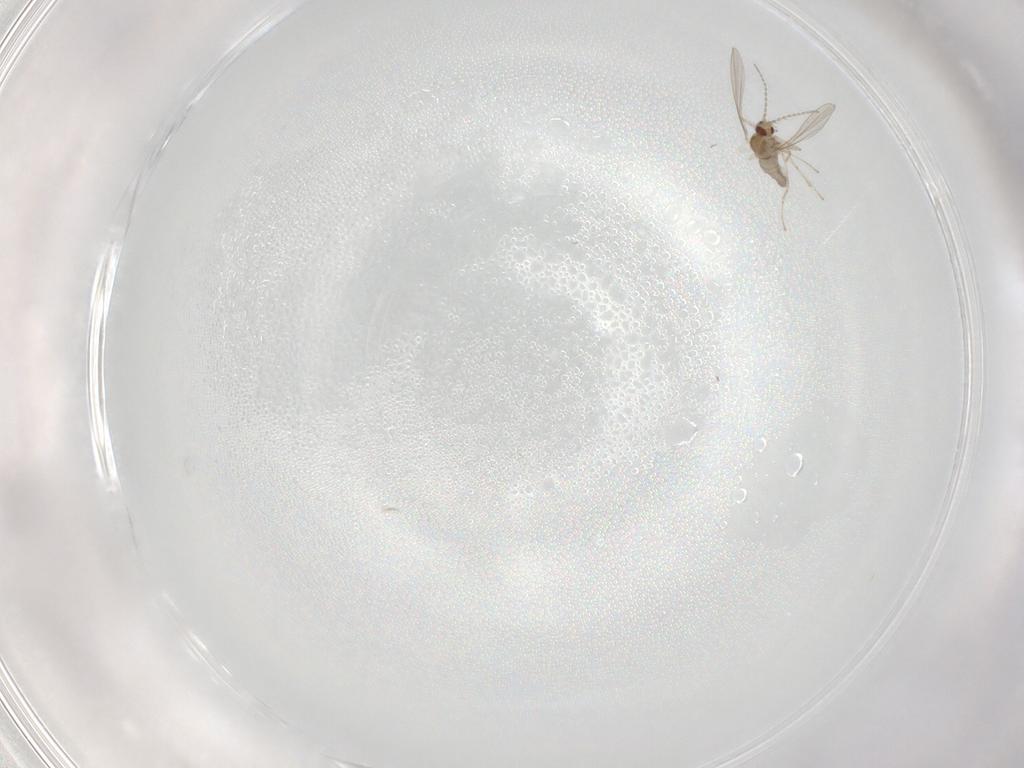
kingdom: Animalia
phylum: Arthropoda
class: Insecta
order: Diptera
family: Cecidomyiidae
